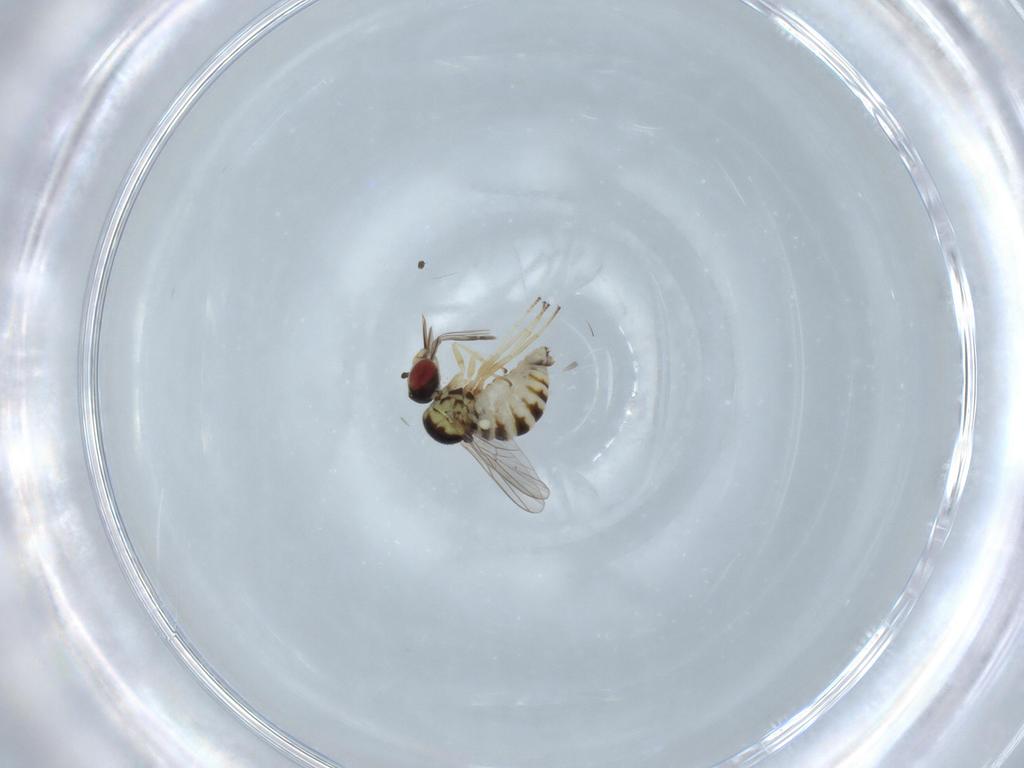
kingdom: Animalia
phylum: Arthropoda
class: Insecta
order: Diptera
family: Bombyliidae
